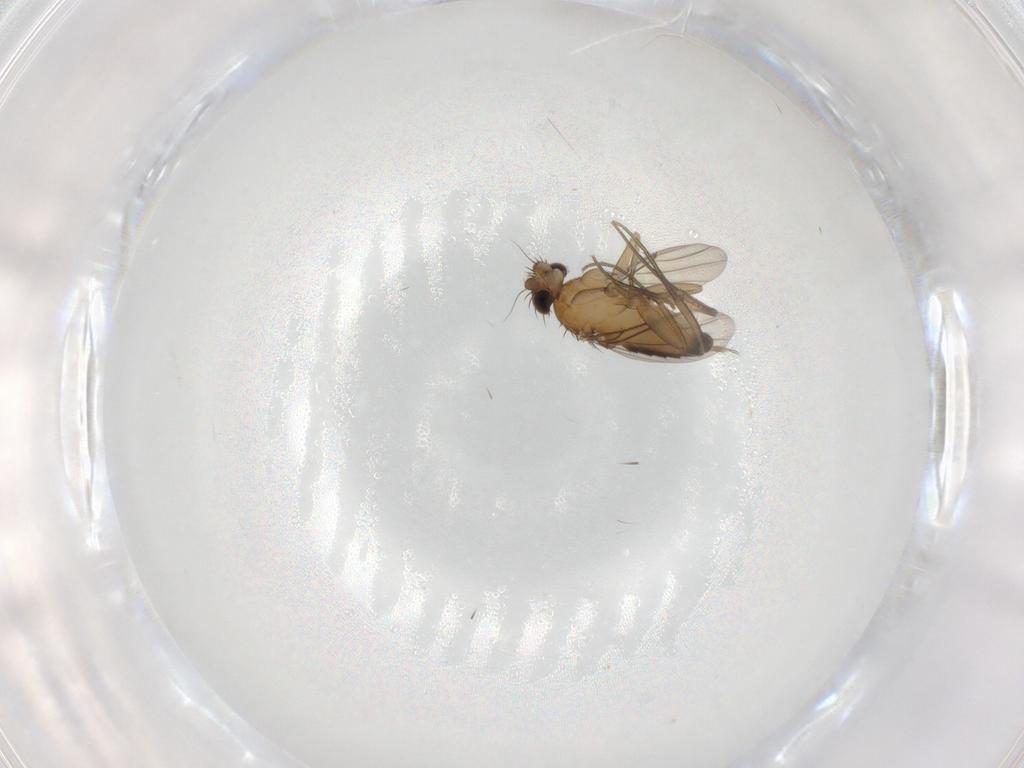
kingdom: Animalia
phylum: Arthropoda
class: Insecta
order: Diptera
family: Phoridae
